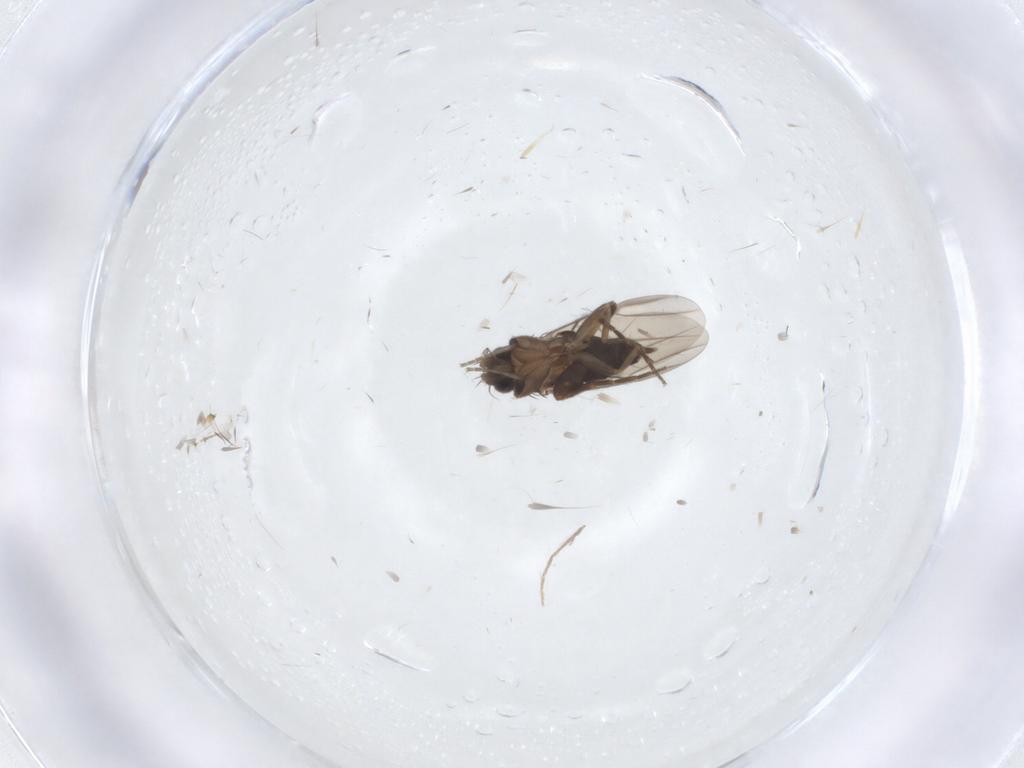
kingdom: Animalia
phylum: Arthropoda
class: Insecta
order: Diptera
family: Phoridae
